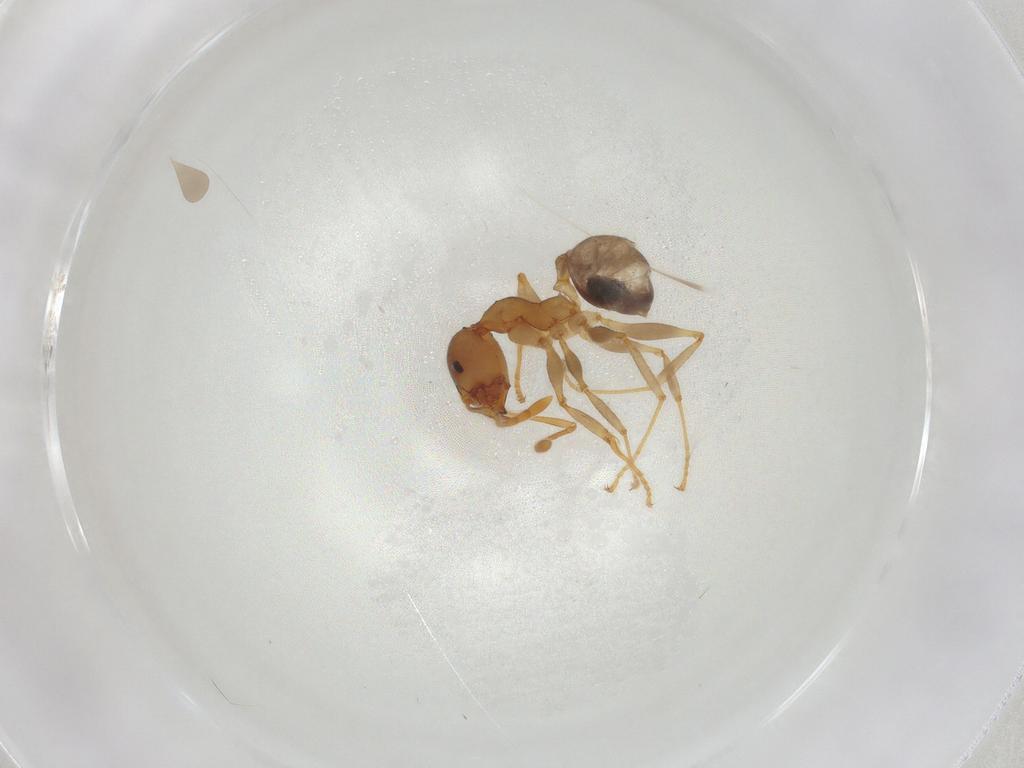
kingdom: Animalia
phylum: Arthropoda
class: Insecta
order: Hymenoptera
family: Formicidae
